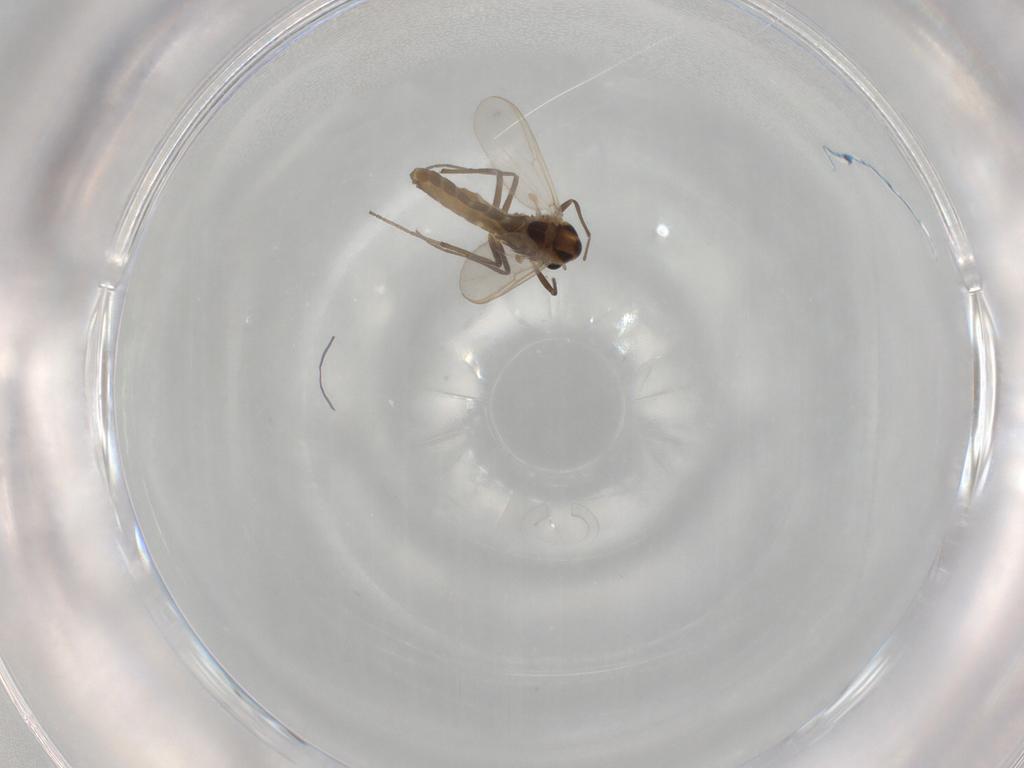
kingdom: Animalia
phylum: Arthropoda
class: Insecta
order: Diptera
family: Chironomidae
